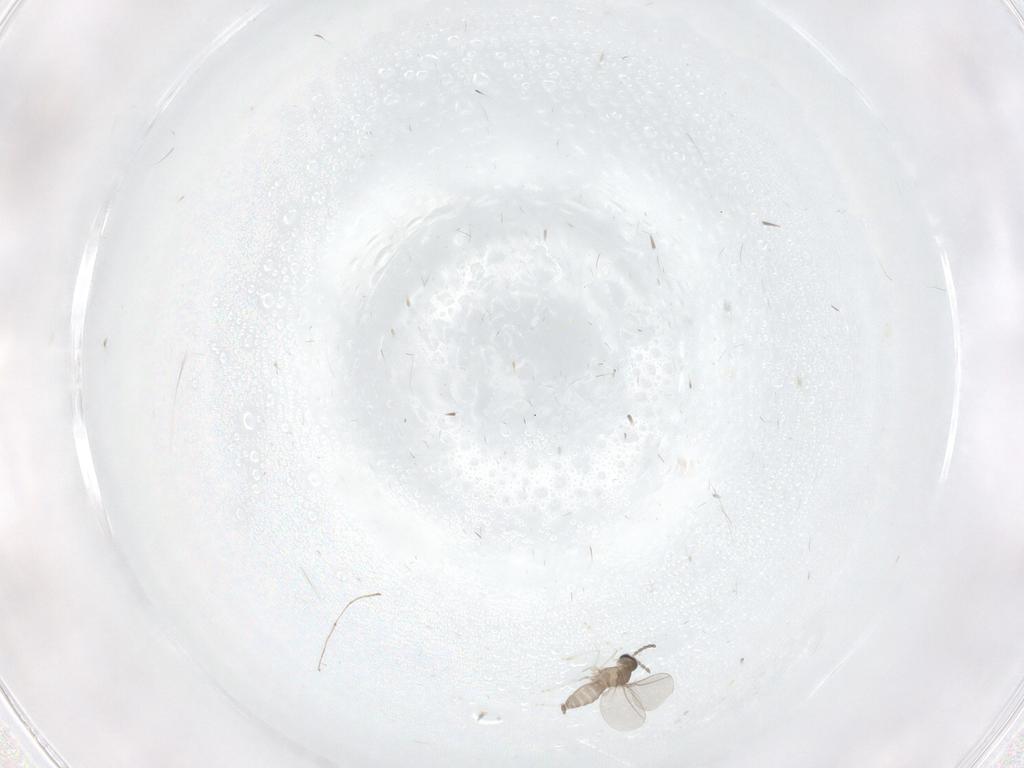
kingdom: Animalia
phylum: Arthropoda
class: Insecta
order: Diptera
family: Cecidomyiidae
